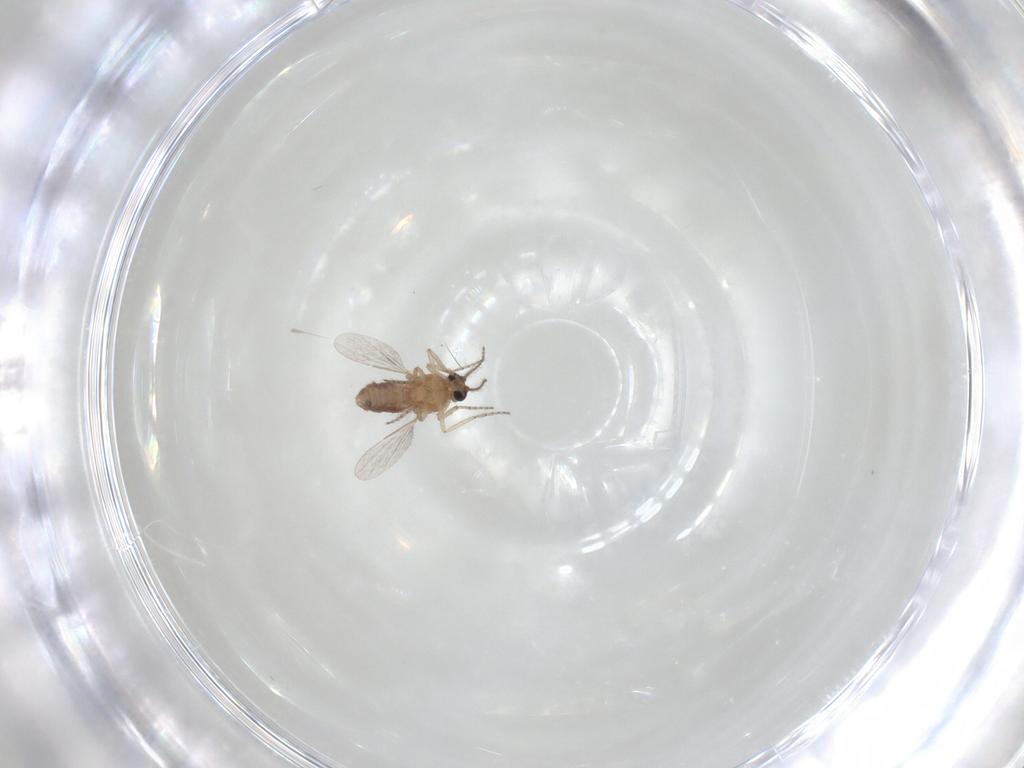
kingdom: Animalia
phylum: Arthropoda
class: Insecta
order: Diptera
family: Ceratopogonidae
